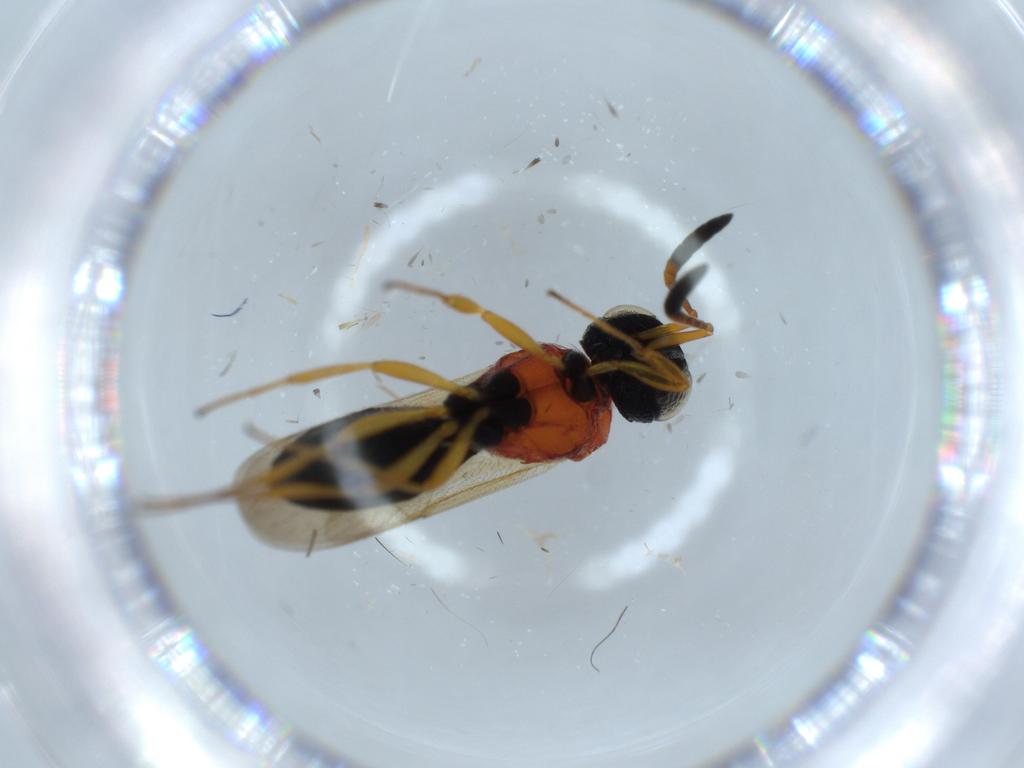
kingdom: Animalia
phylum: Arthropoda
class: Insecta
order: Hymenoptera
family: Scelionidae
